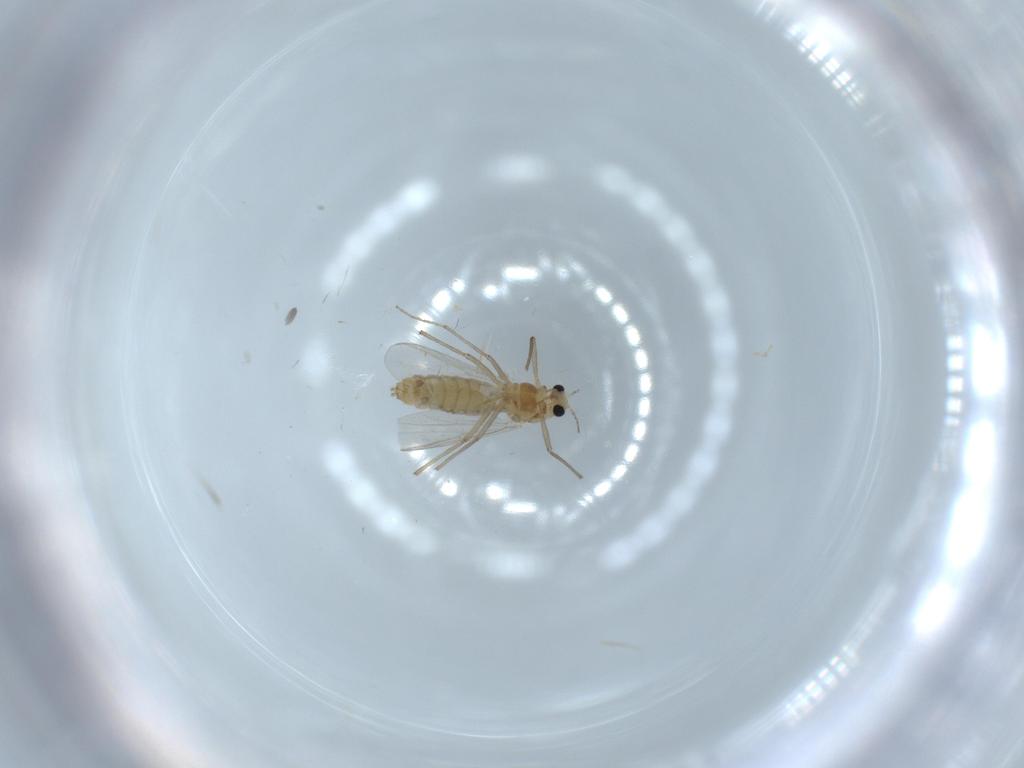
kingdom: Animalia
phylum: Arthropoda
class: Insecta
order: Diptera
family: Chironomidae
